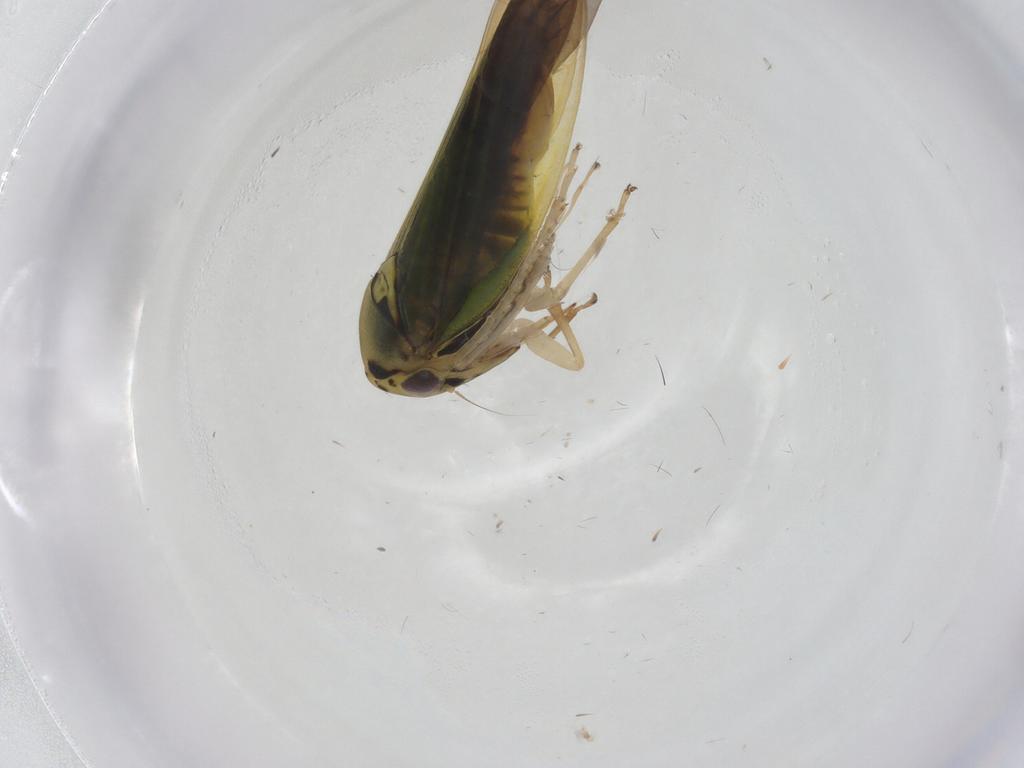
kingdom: Animalia
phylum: Arthropoda
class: Insecta
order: Hemiptera
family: Cicadellidae
